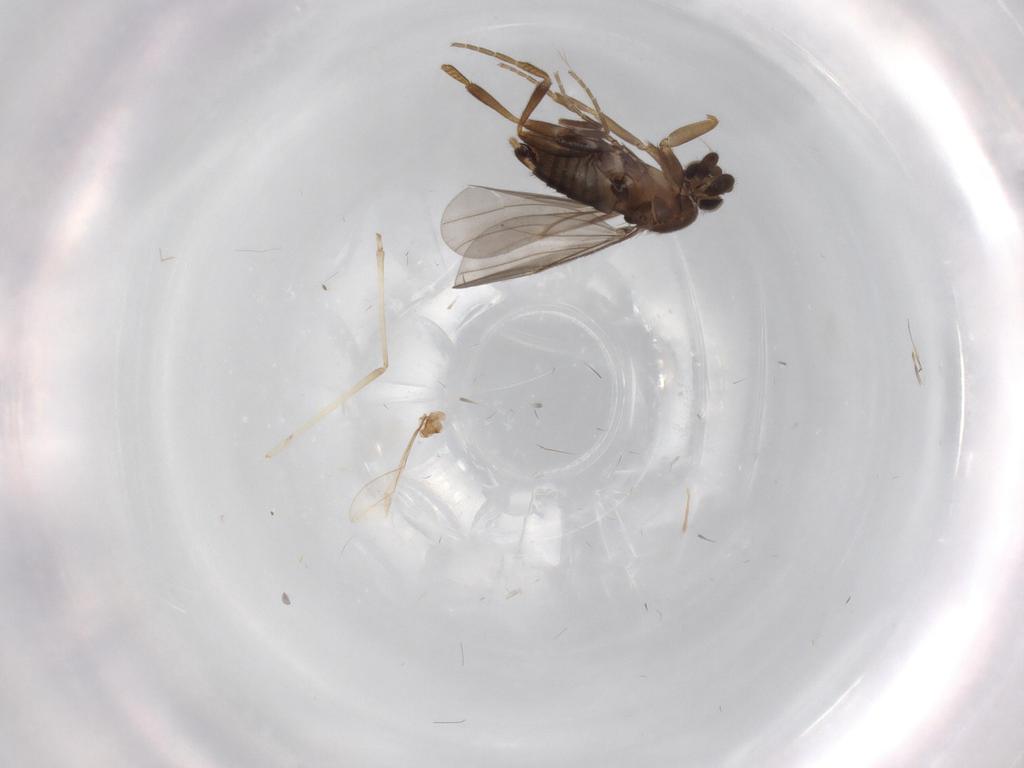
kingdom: Animalia
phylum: Arthropoda
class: Insecta
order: Diptera
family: Phoridae
